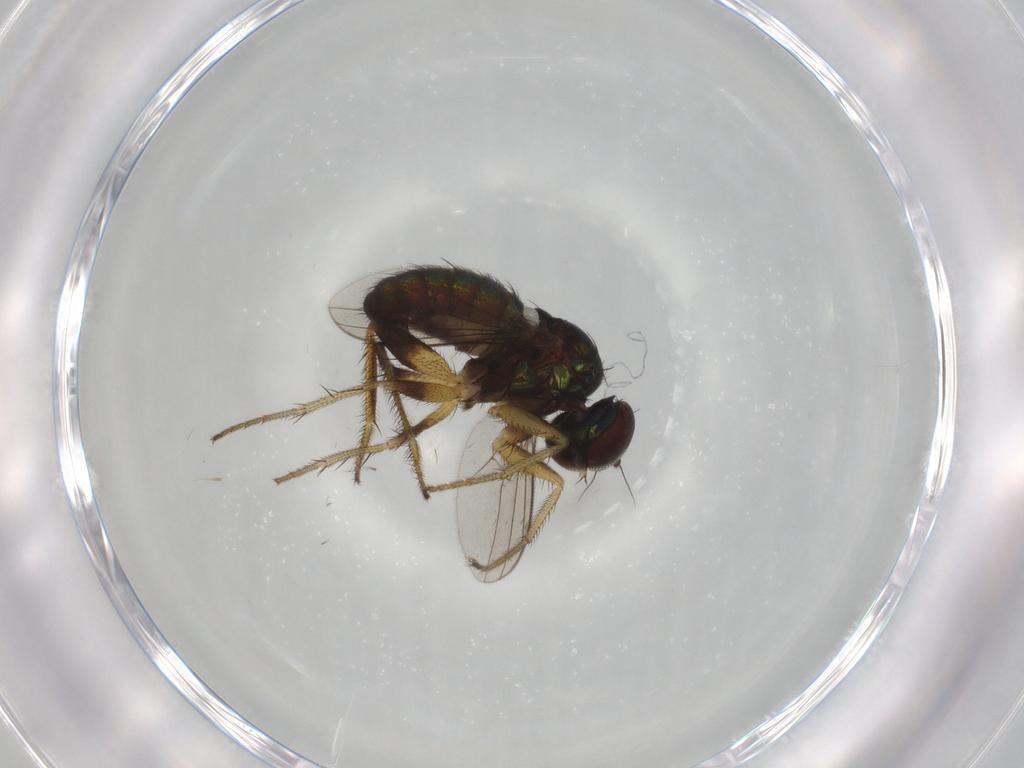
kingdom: Animalia
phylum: Arthropoda
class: Insecta
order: Diptera
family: Dolichopodidae
